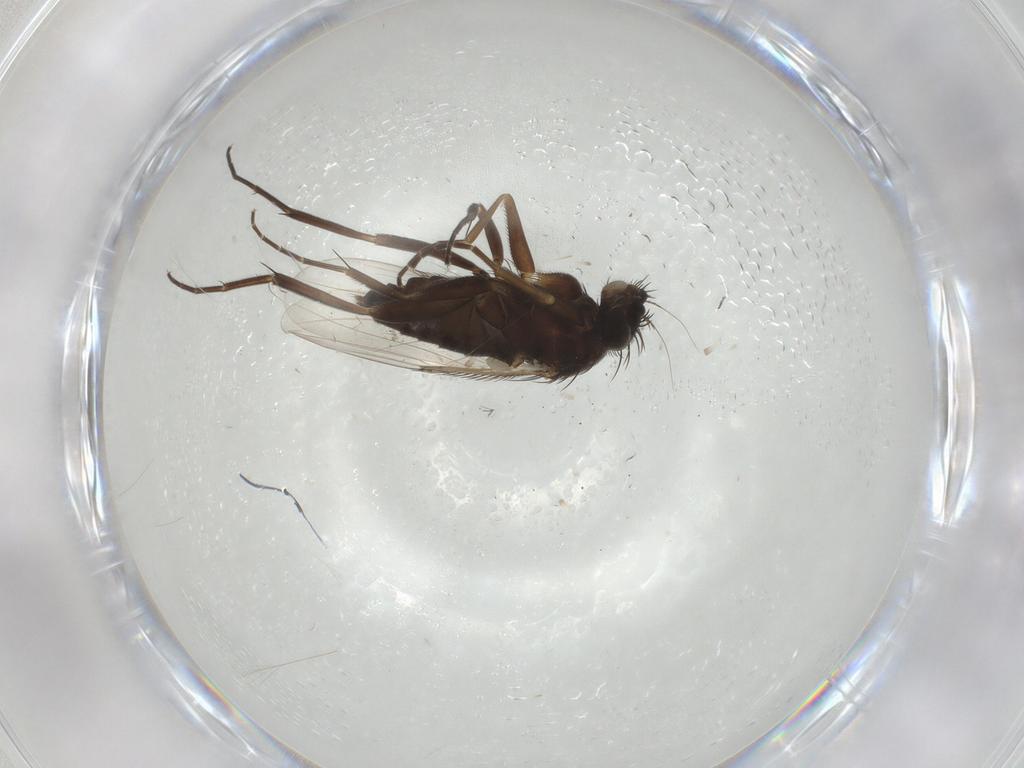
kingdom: Animalia
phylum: Arthropoda
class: Insecta
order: Diptera
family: Phoridae
